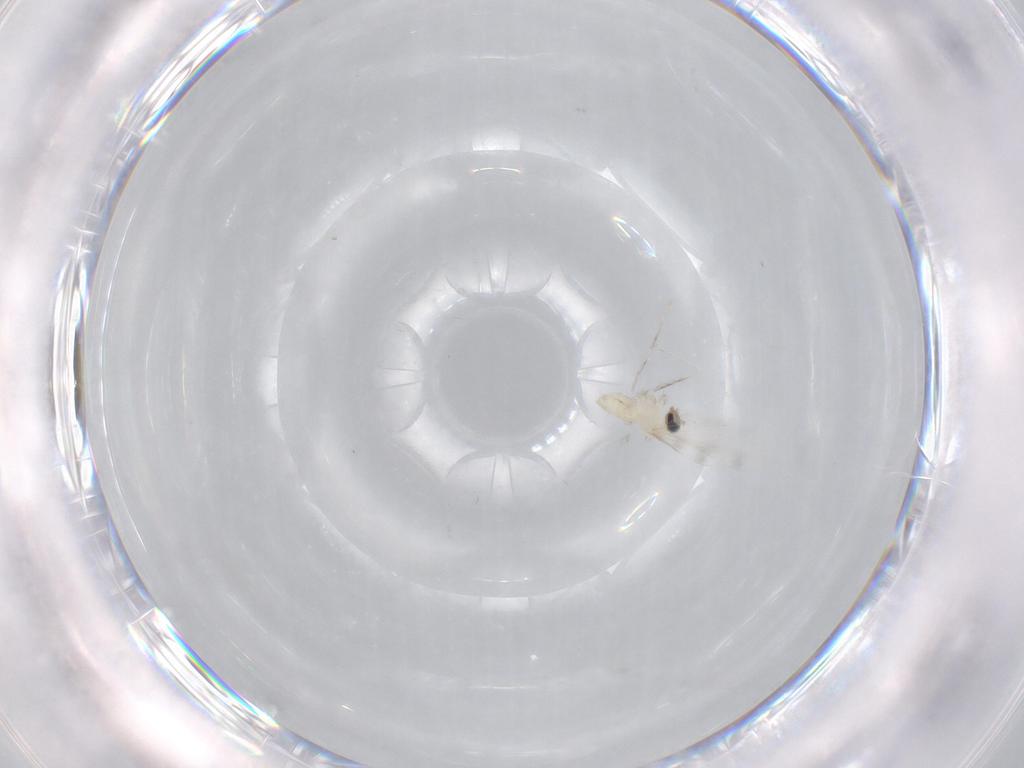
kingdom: Animalia
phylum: Arthropoda
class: Insecta
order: Diptera
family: Cecidomyiidae
